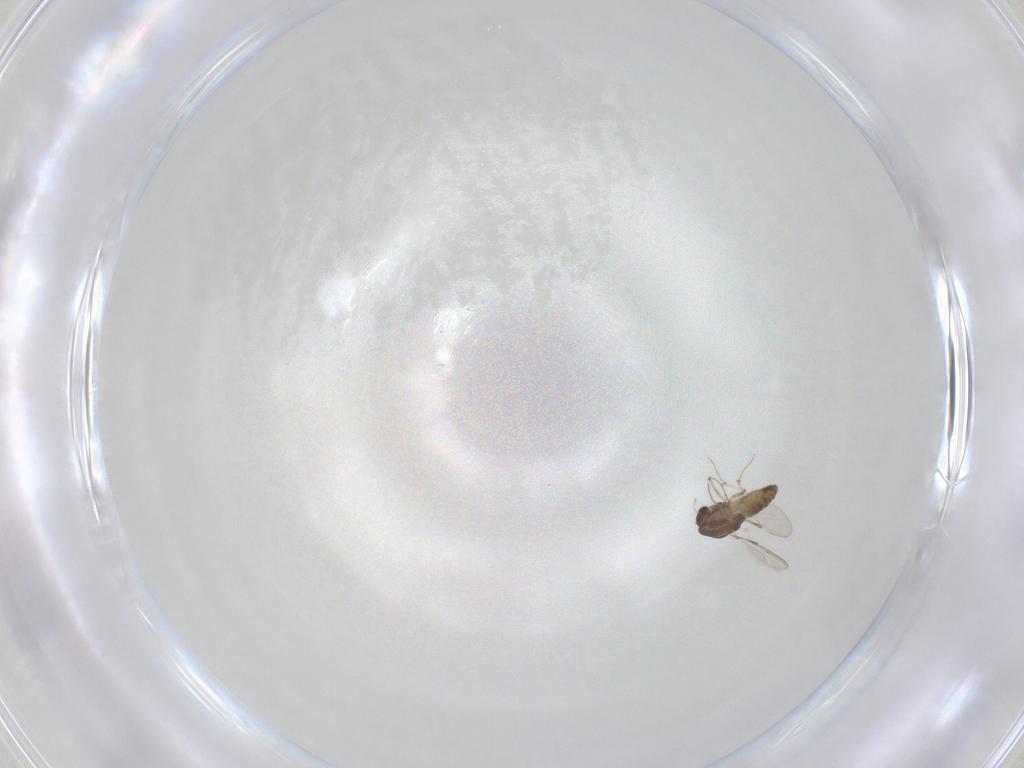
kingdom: Animalia
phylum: Arthropoda
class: Insecta
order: Diptera
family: Chironomidae
